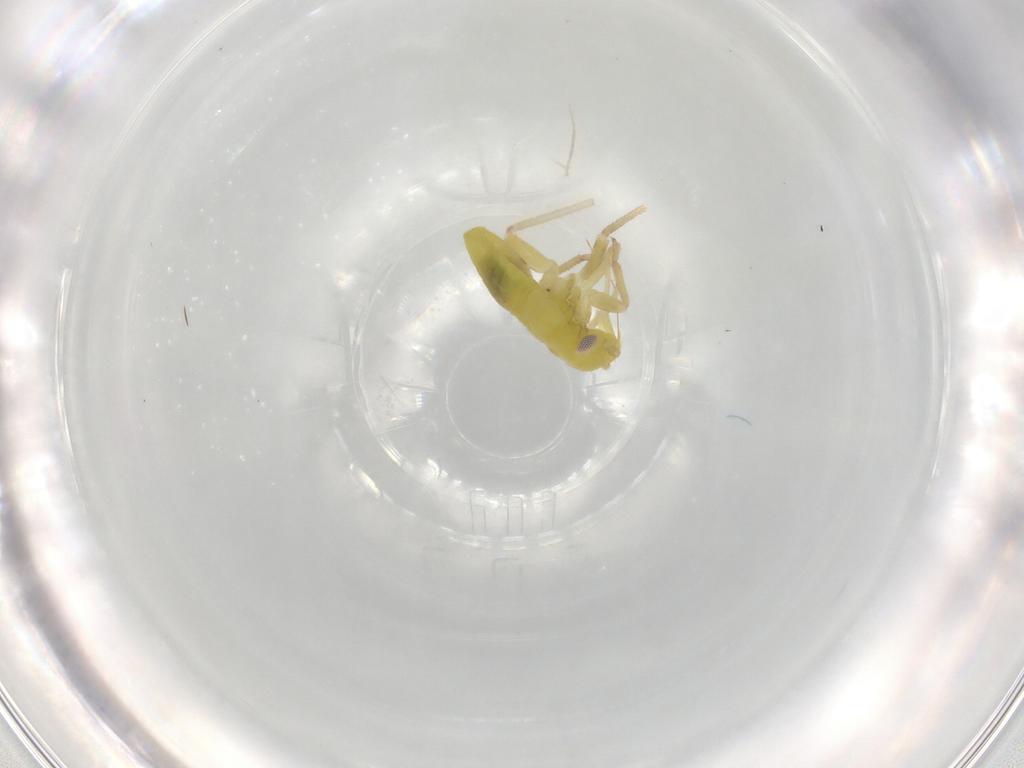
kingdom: Animalia
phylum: Arthropoda
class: Insecta
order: Hemiptera
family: Miridae
